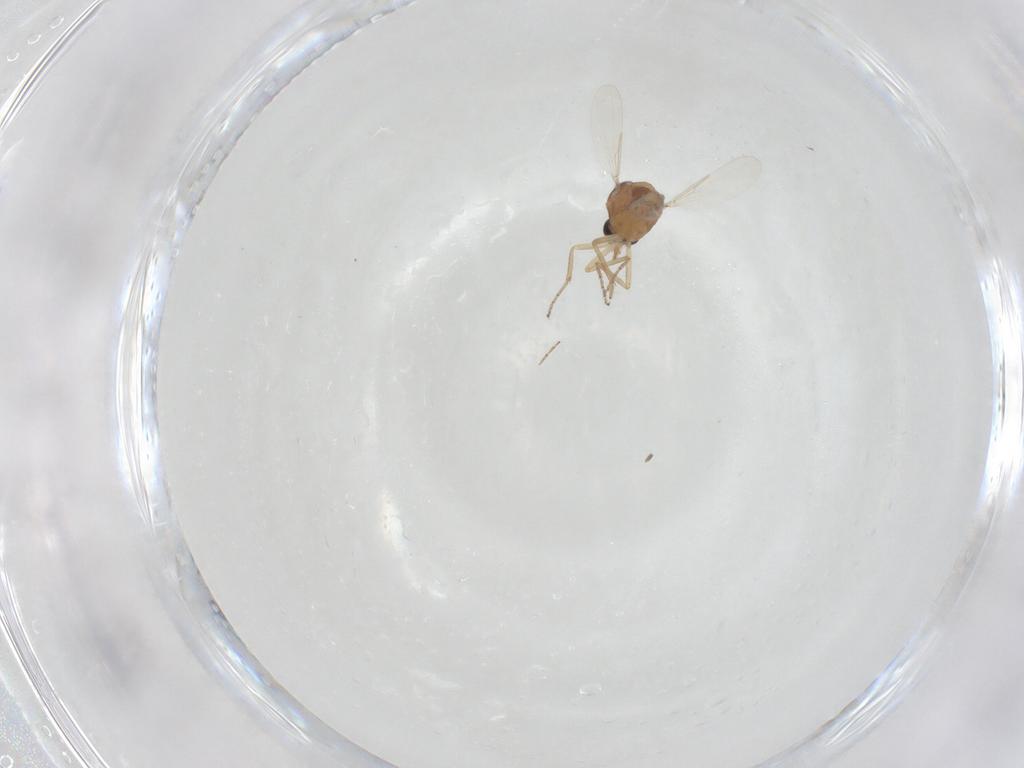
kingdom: Animalia
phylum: Arthropoda
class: Insecta
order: Diptera
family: Ceratopogonidae
